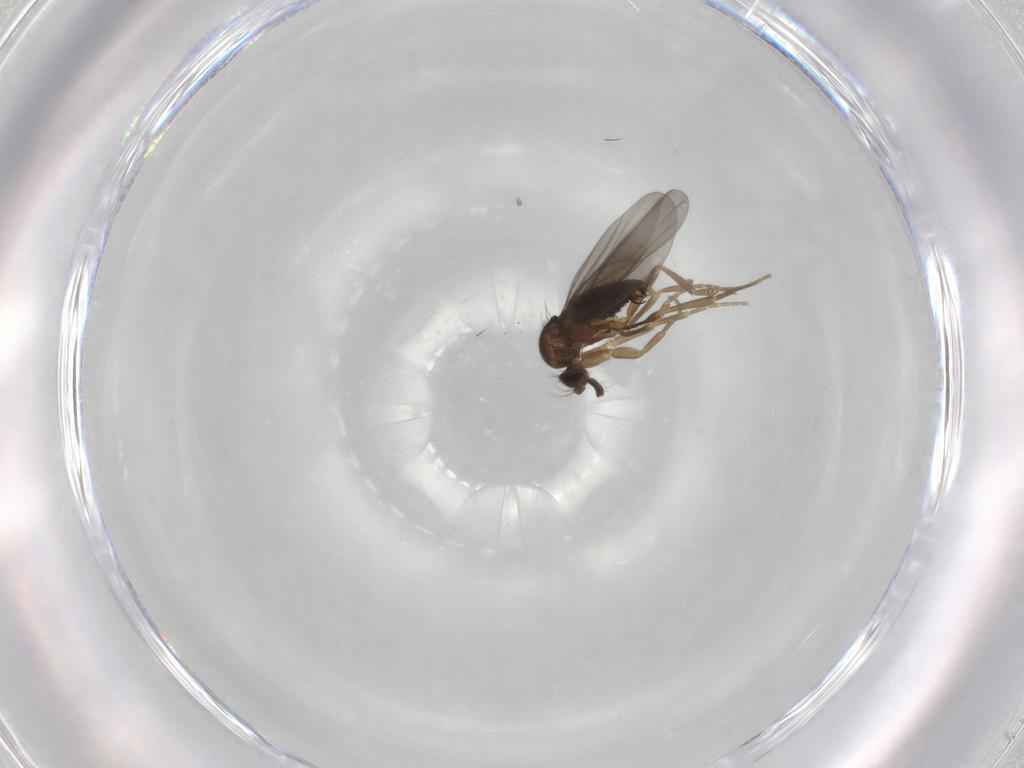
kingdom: Animalia
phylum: Arthropoda
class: Insecta
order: Diptera
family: Phoridae
